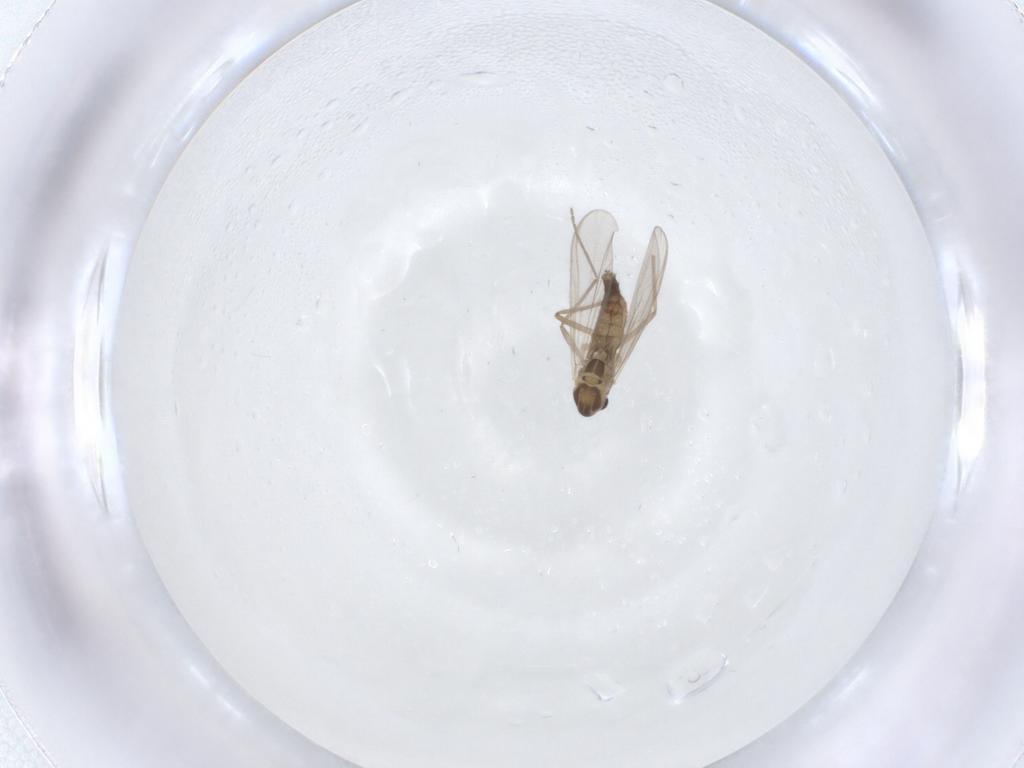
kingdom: Animalia
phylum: Arthropoda
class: Insecta
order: Diptera
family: Chironomidae
